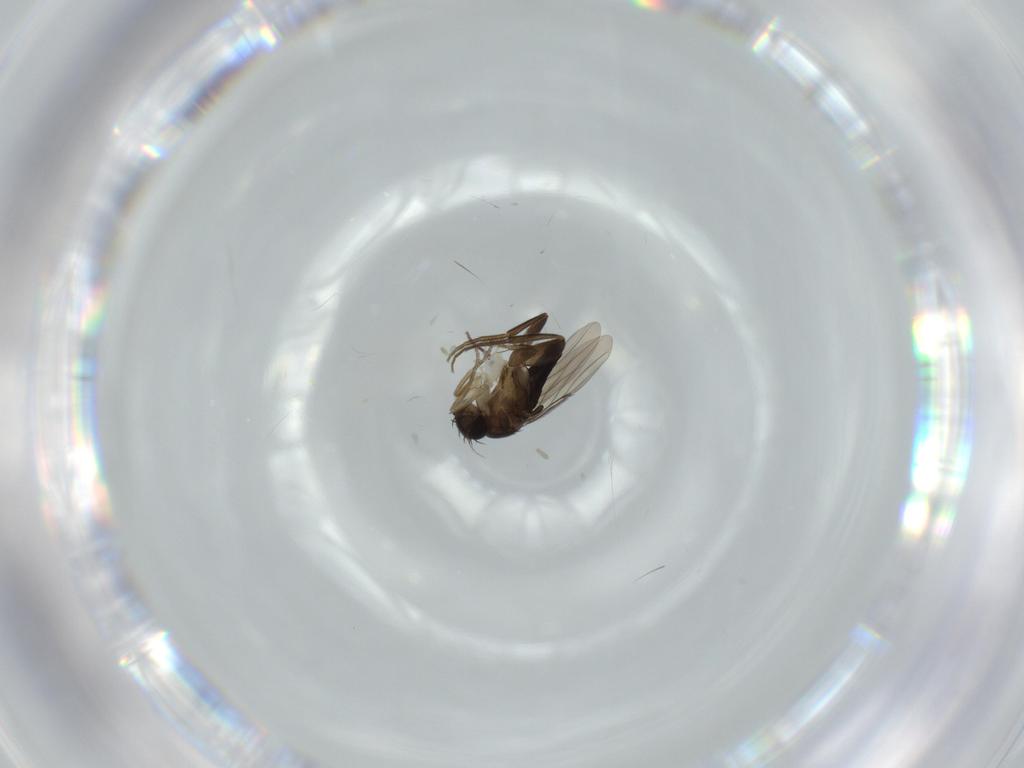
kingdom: Animalia
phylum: Arthropoda
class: Insecta
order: Diptera
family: Phoridae
